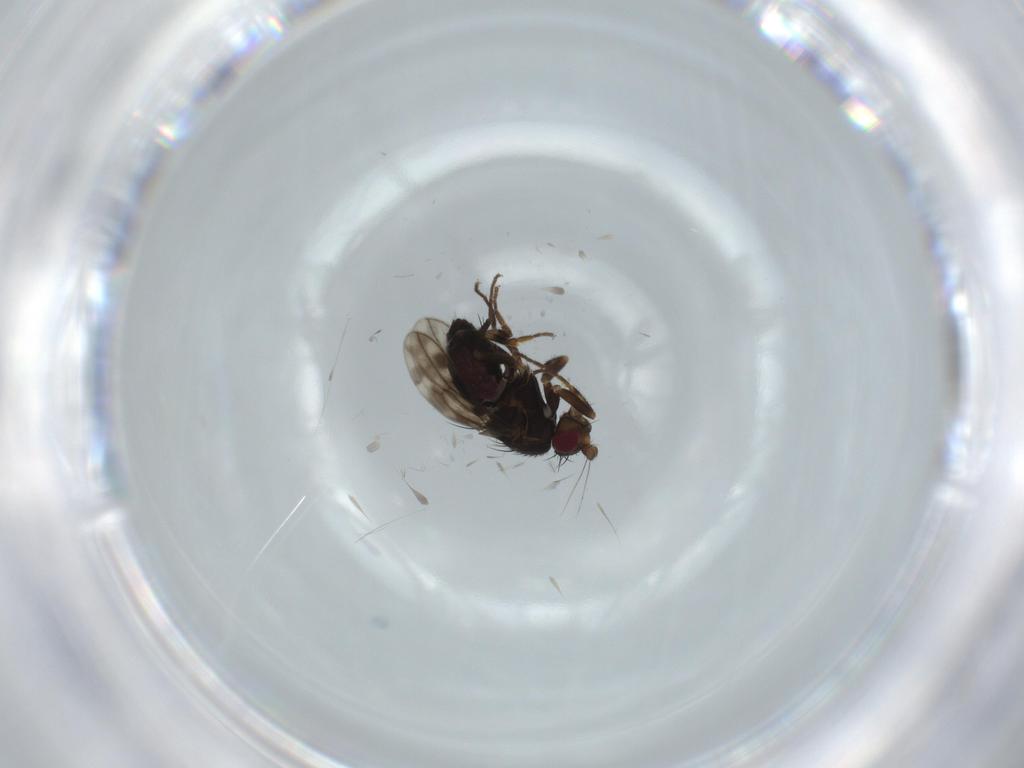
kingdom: Animalia
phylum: Arthropoda
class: Insecta
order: Diptera
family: Sphaeroceridae
